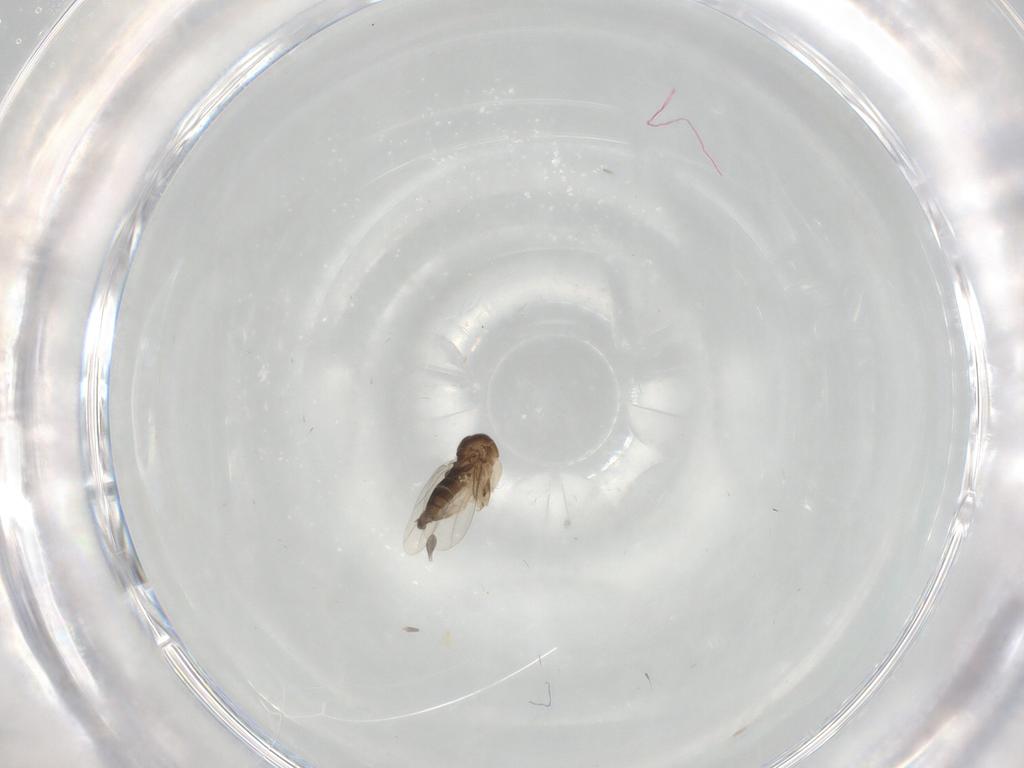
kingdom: Animalia
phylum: Arthropoda
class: Insecta
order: Diptera
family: Phoridae
